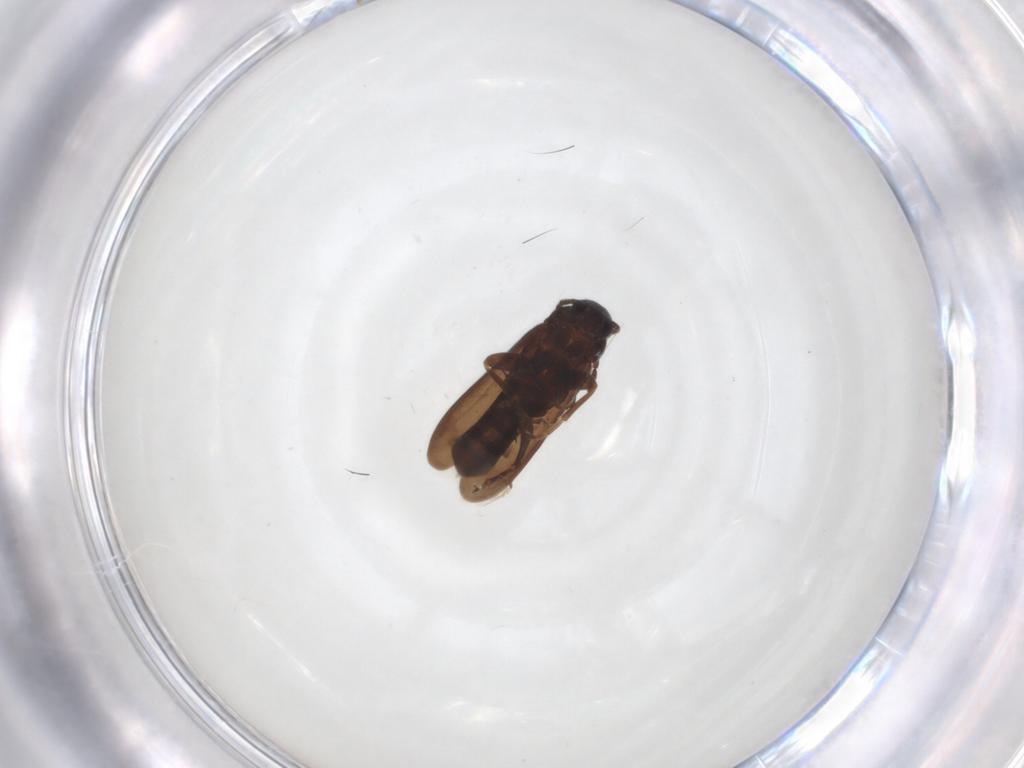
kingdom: Animalia
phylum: Arthropoda
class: Insecta
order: Coleoptera
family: Scraptiidae
